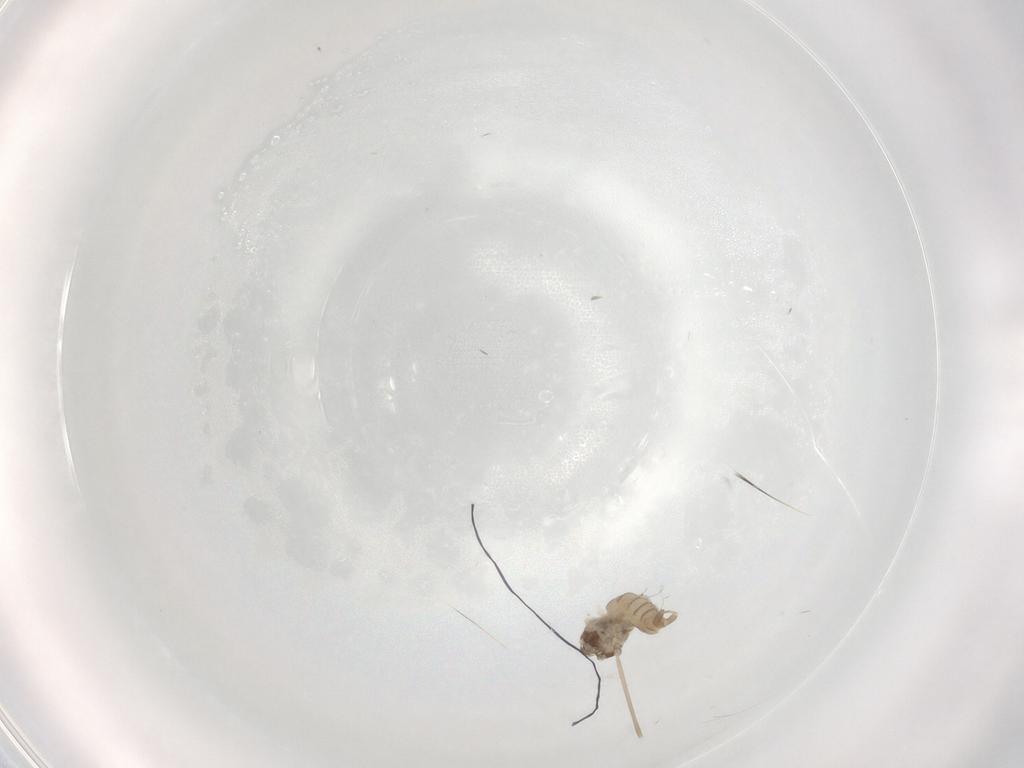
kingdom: Animalia
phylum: Arthropoda
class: Insecta
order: Diptera
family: Cecidomyiidae
